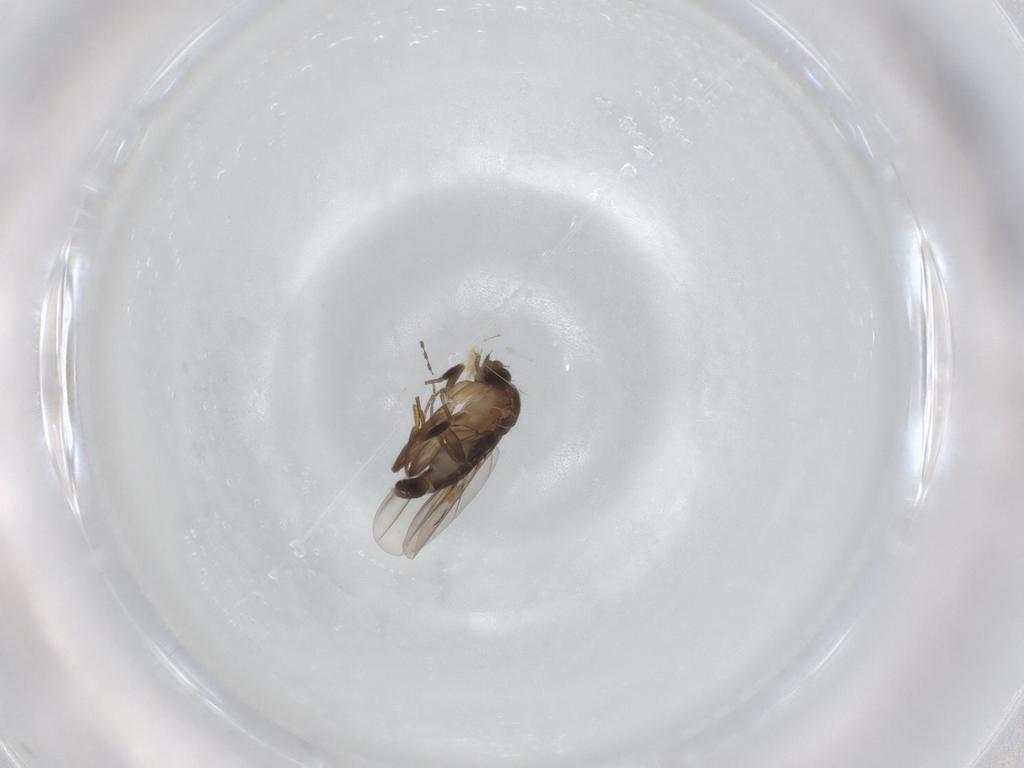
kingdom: Animalia
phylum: Arthropoda
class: Insecta
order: Diptera
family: Phoridae
